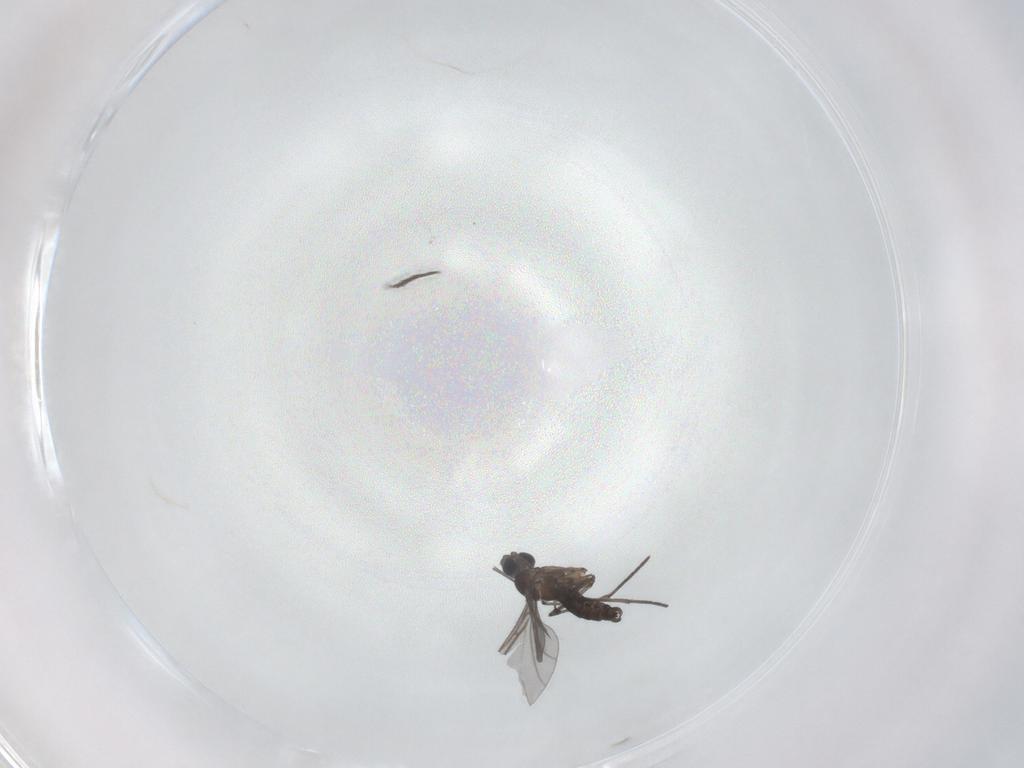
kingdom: Animalia
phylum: Arthropoda
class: Insecta
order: Diptera
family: Sciaridae
